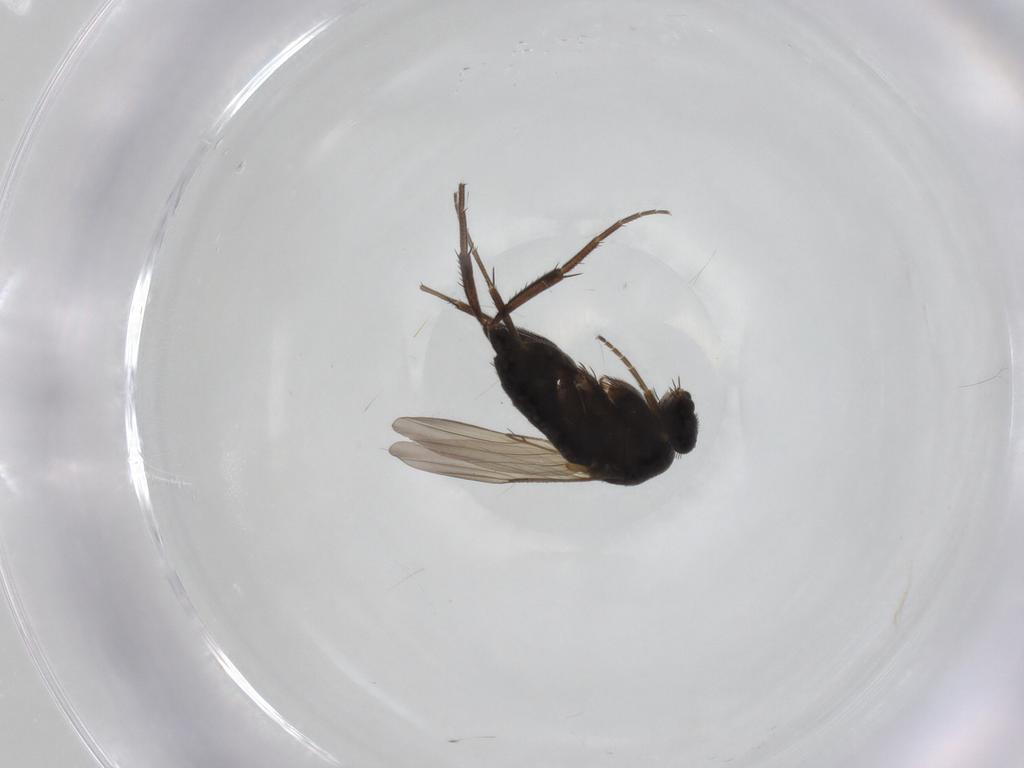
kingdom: Animalia
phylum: Arthropoda
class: Insecta
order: Diptera
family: Phoridae
